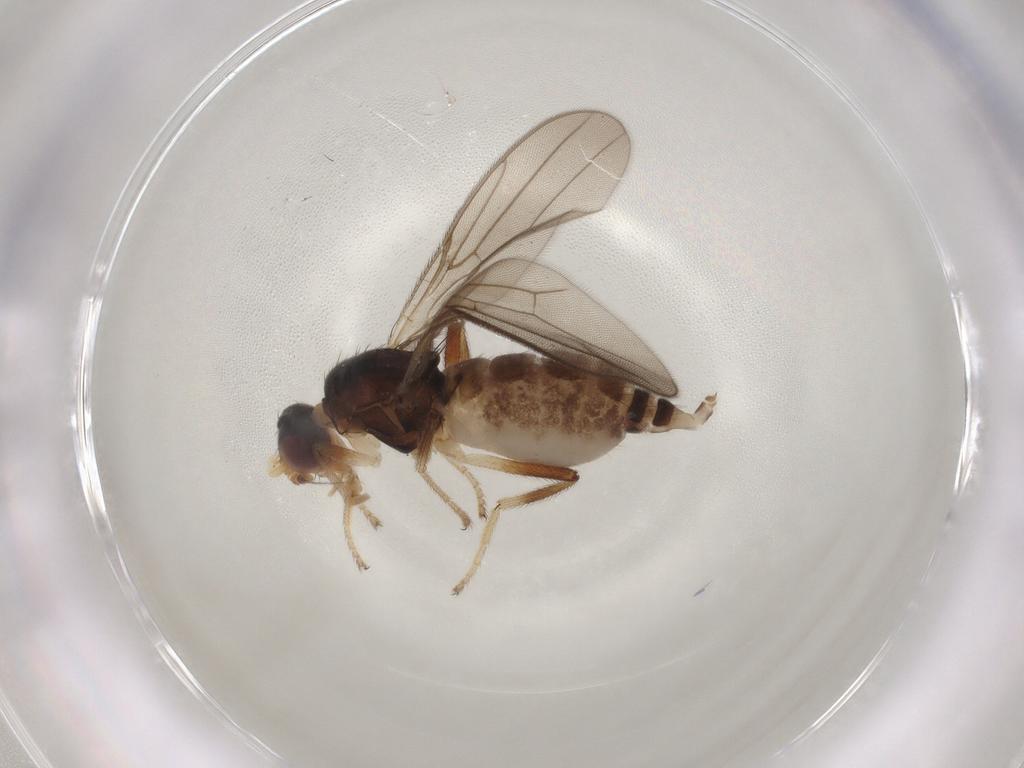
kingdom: Animalia
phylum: Arthropoda
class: Insecta
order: Diptera
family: Chloropidae
